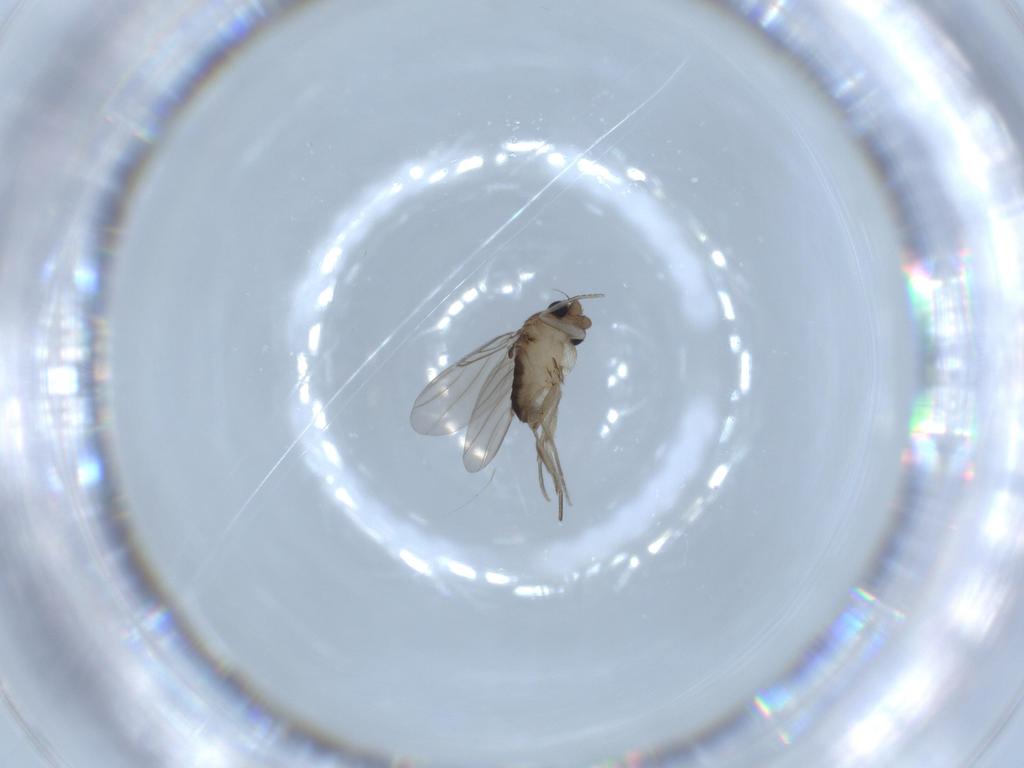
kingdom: Animalia
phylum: Arthropoda
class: Insecta
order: Diptera
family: Phoridae
